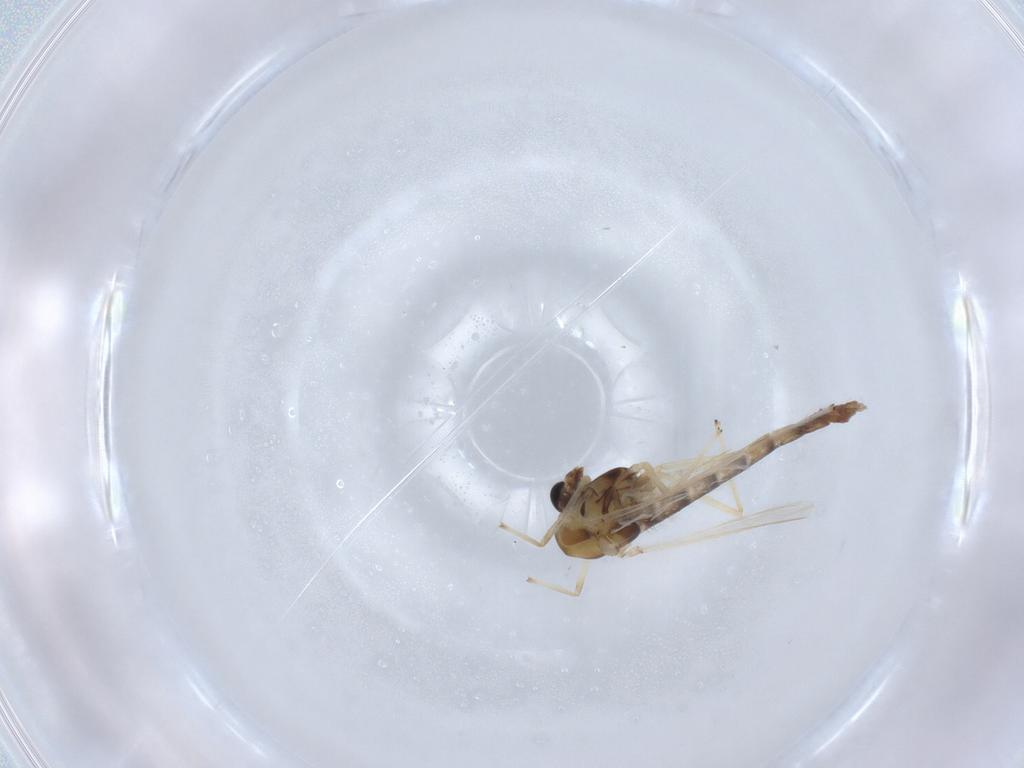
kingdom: Animalia
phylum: Arthropoda
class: Insecta
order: Diptera
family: Chironomidae
